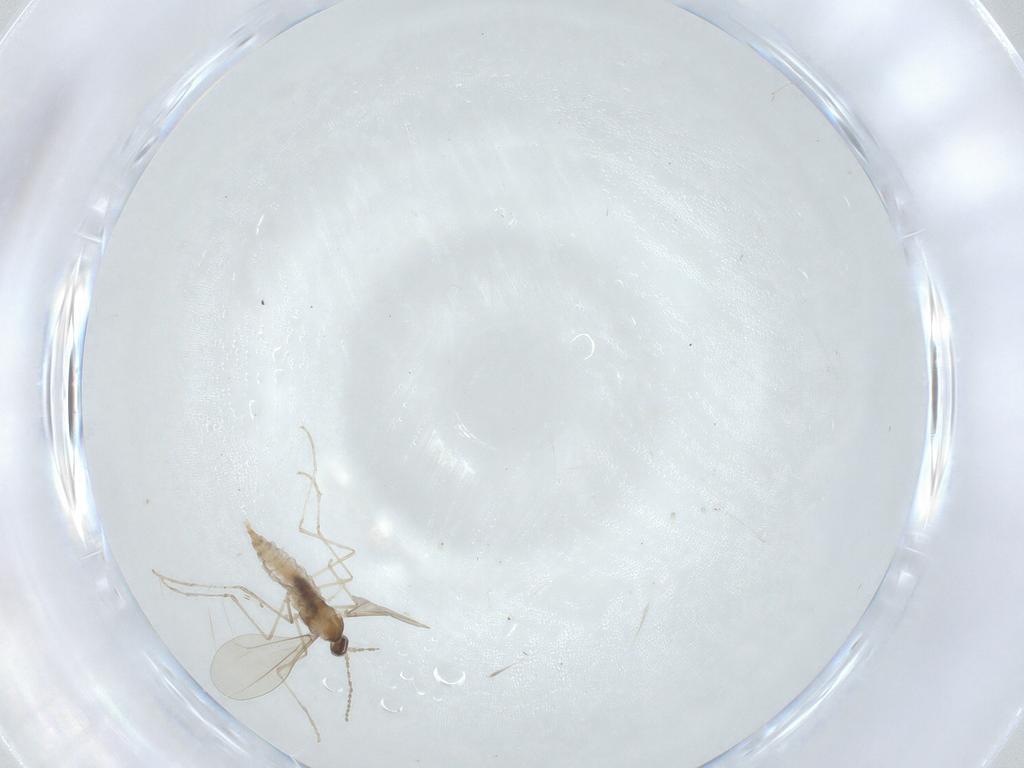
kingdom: Animalia
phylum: Arthropoda
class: Insecta
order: Diptera
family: Cecidomyiidae
